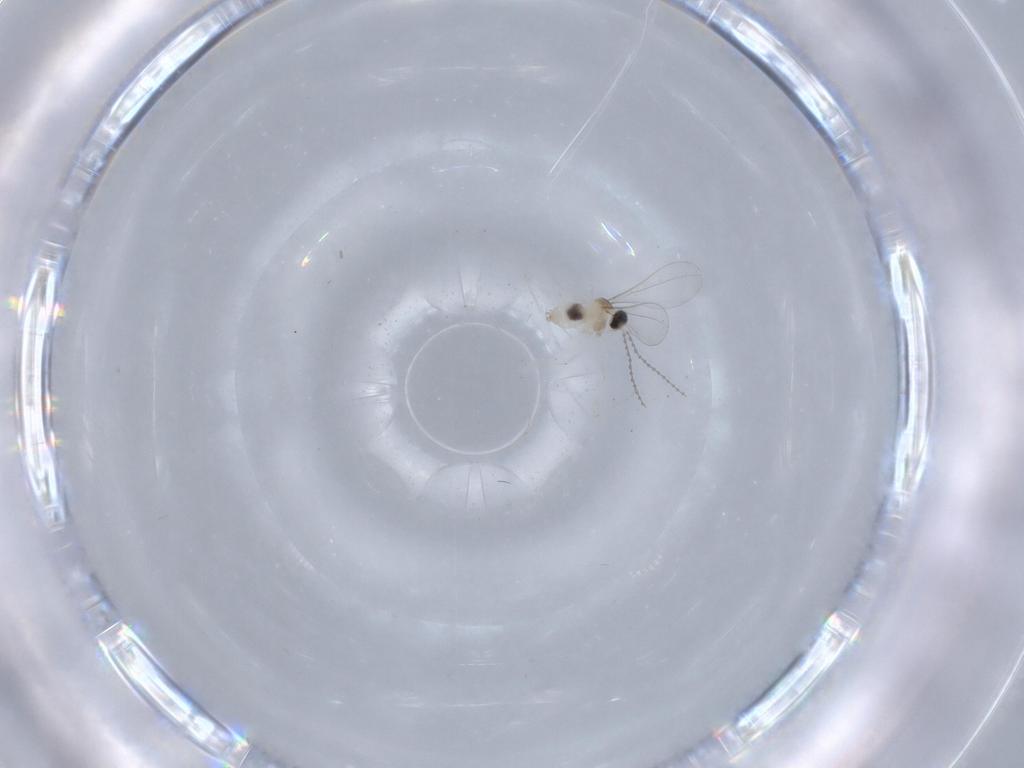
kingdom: Animalia
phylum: Arthropoda
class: Insecta
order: Diptera
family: Cecidomyiidae
